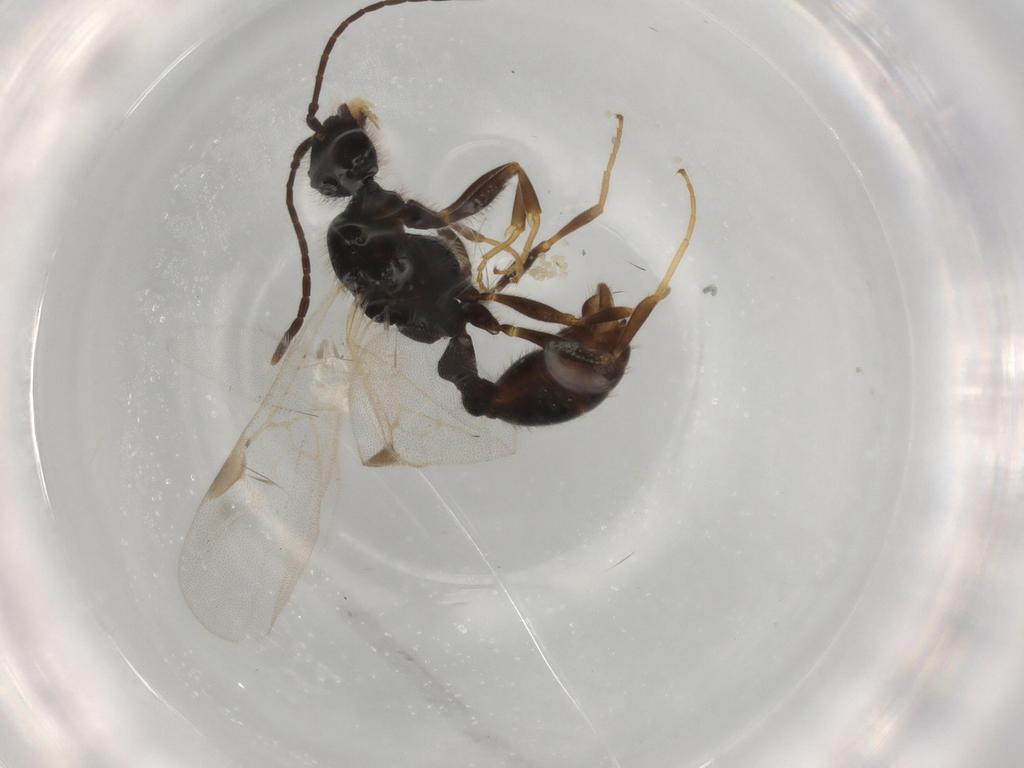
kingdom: Animalia
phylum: Arthropoda
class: Insecta
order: Hymenoptera
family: Formicidae
